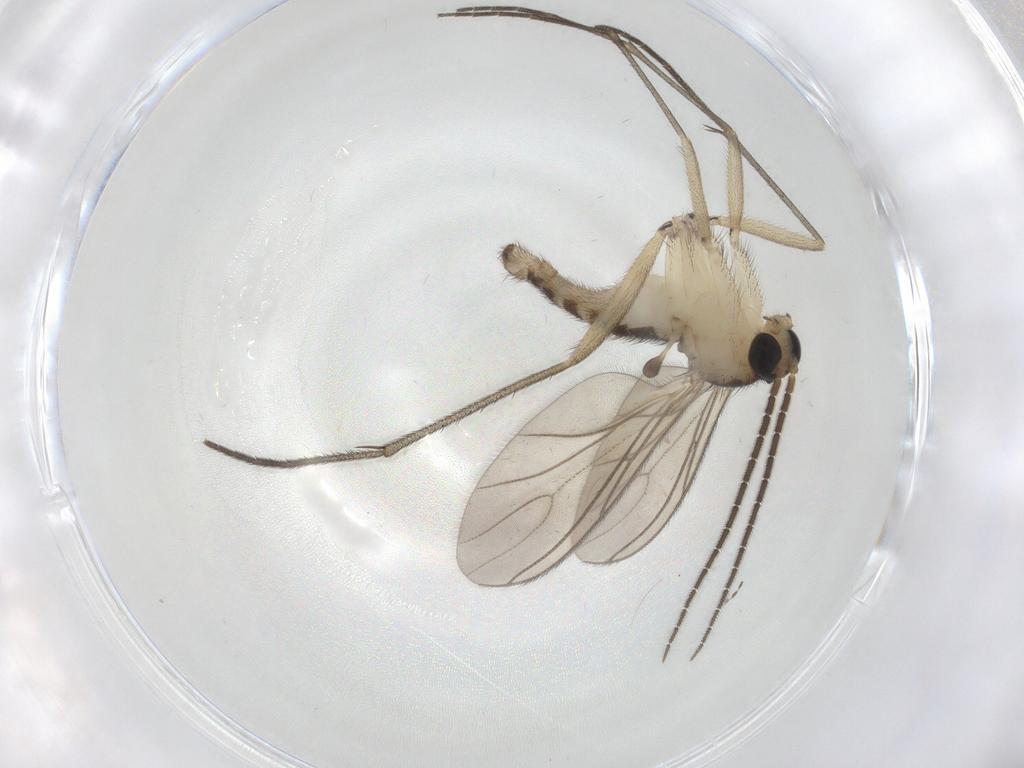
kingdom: Animalia
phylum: Arthropoda
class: Insecta
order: Diptera
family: Sciaridae
